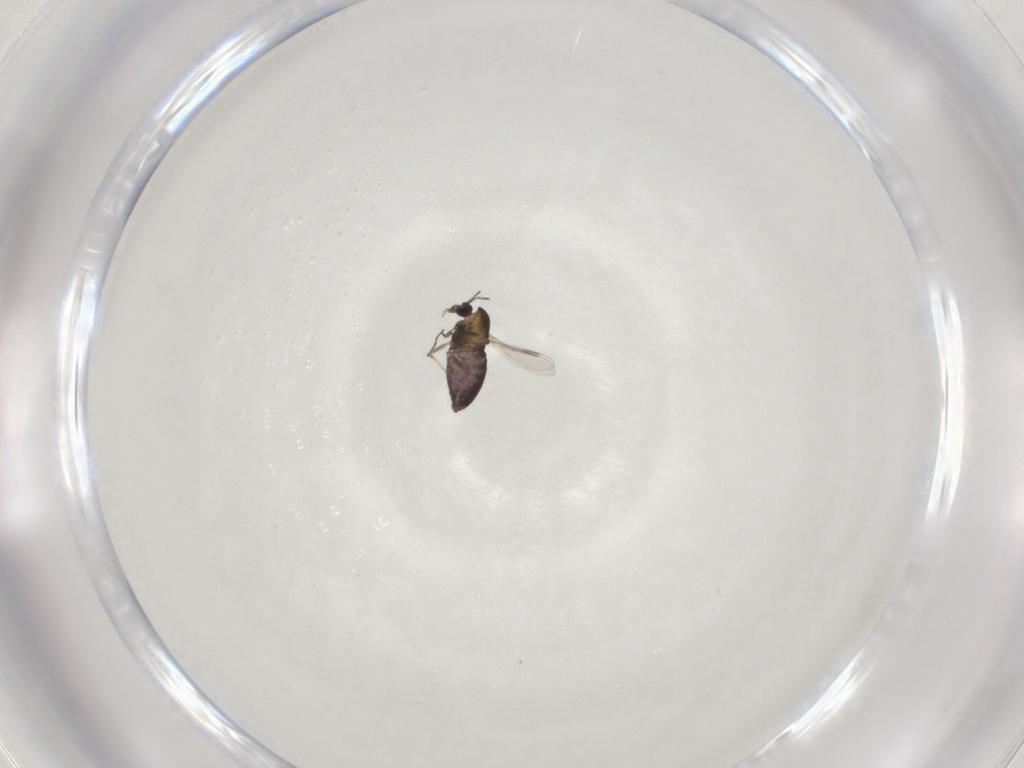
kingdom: Animalia
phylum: Arthropoda
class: Insecta
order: Diptera
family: Chironomidae
